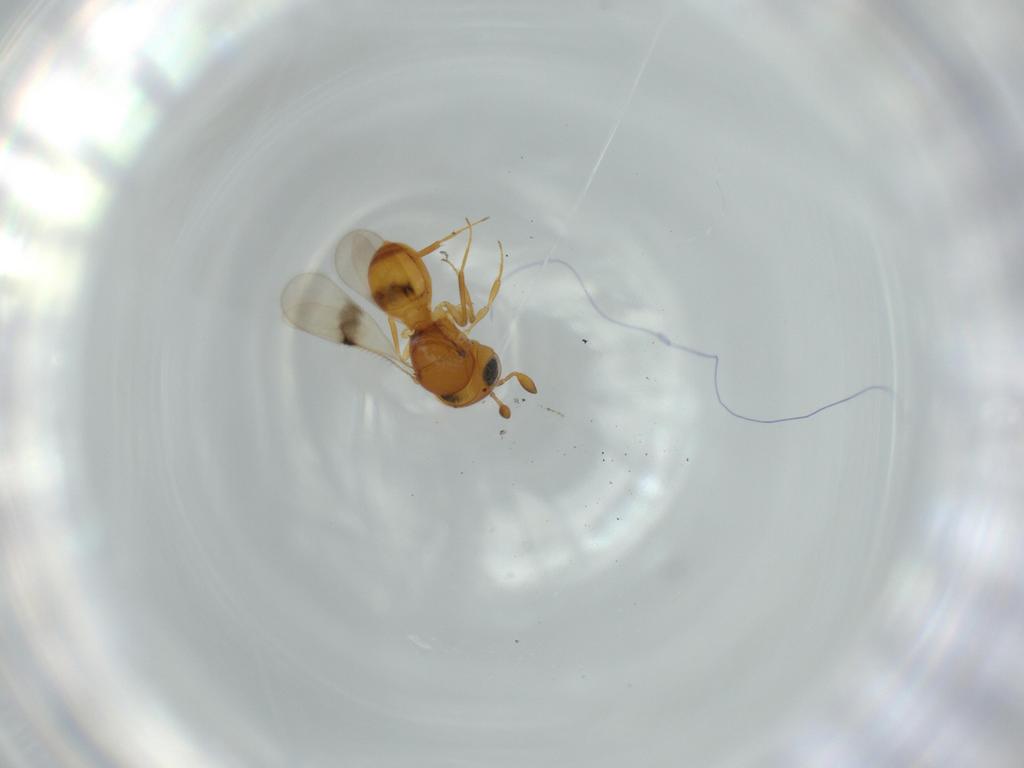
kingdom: Animalia
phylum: Arthropoda
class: Insecta
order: Hymenoptera
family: Scelionidae
